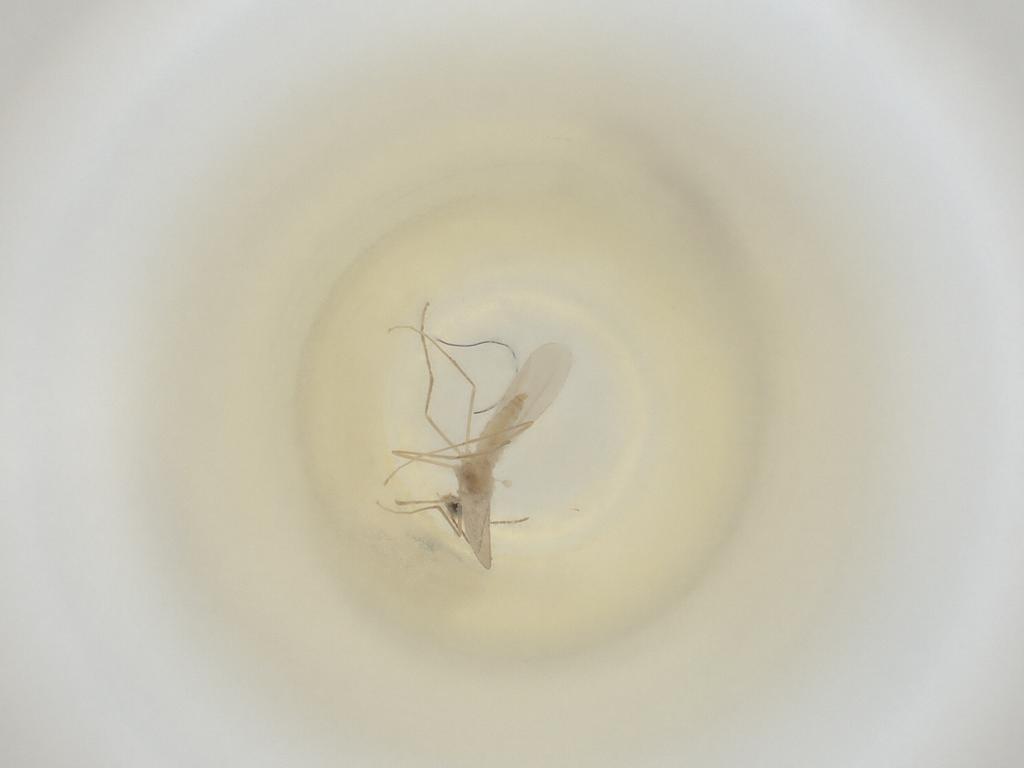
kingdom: Animalia
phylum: Arthropoda
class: Insecta
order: Diptera
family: Cecidomyiidae
